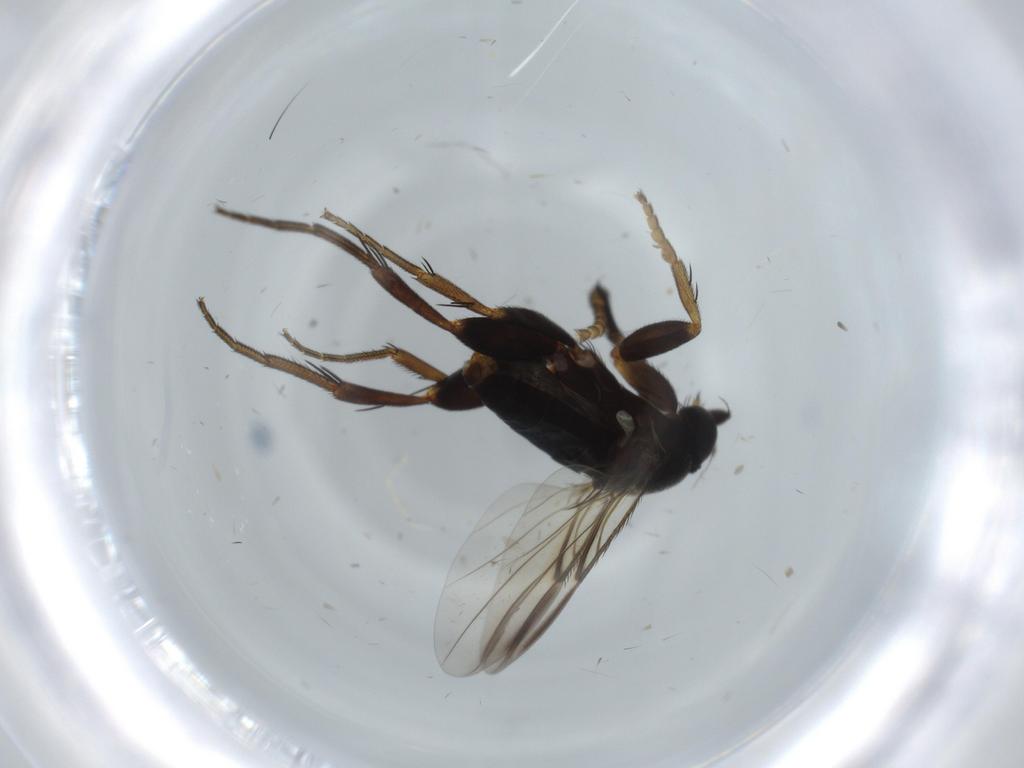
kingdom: Animalia
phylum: Arthropoda
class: Insecta
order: Diptera
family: Phoridae
